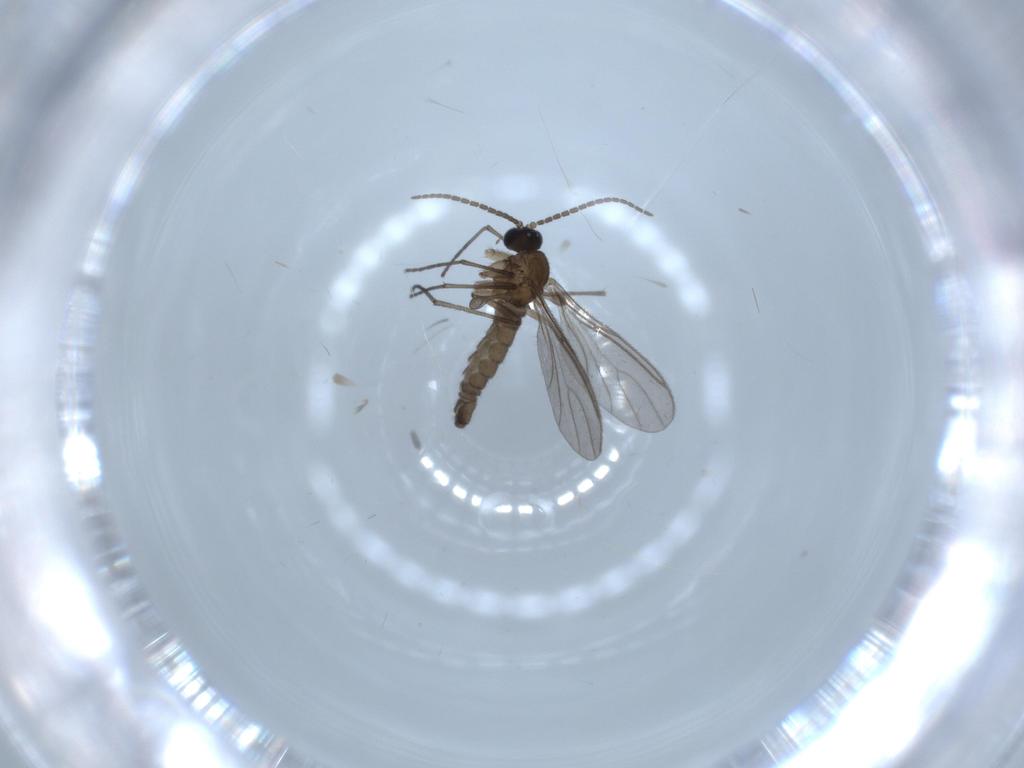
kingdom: Animalia
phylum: Arthropoda
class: Insecta
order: Diptera
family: Sciaridae
